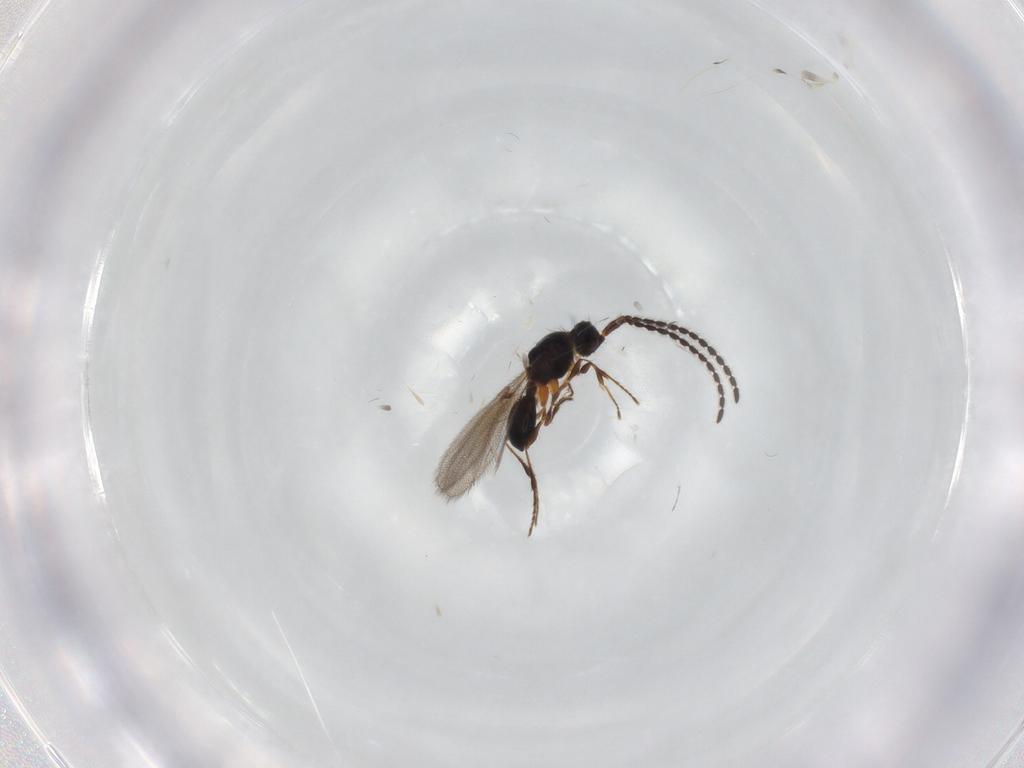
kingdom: Animalia
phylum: Arthropoda
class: Insecta
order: Hymenoptera
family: Diapriidae
